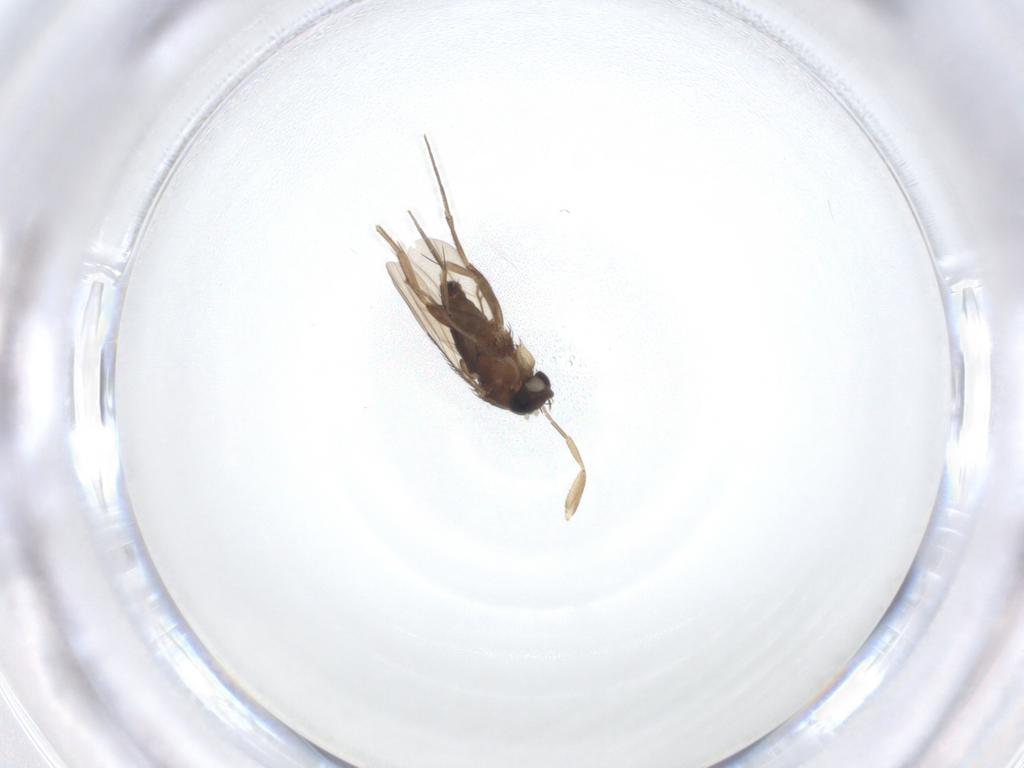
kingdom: Animalia
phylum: Arthropoda
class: Insecta
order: Diptera
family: Phoridae
